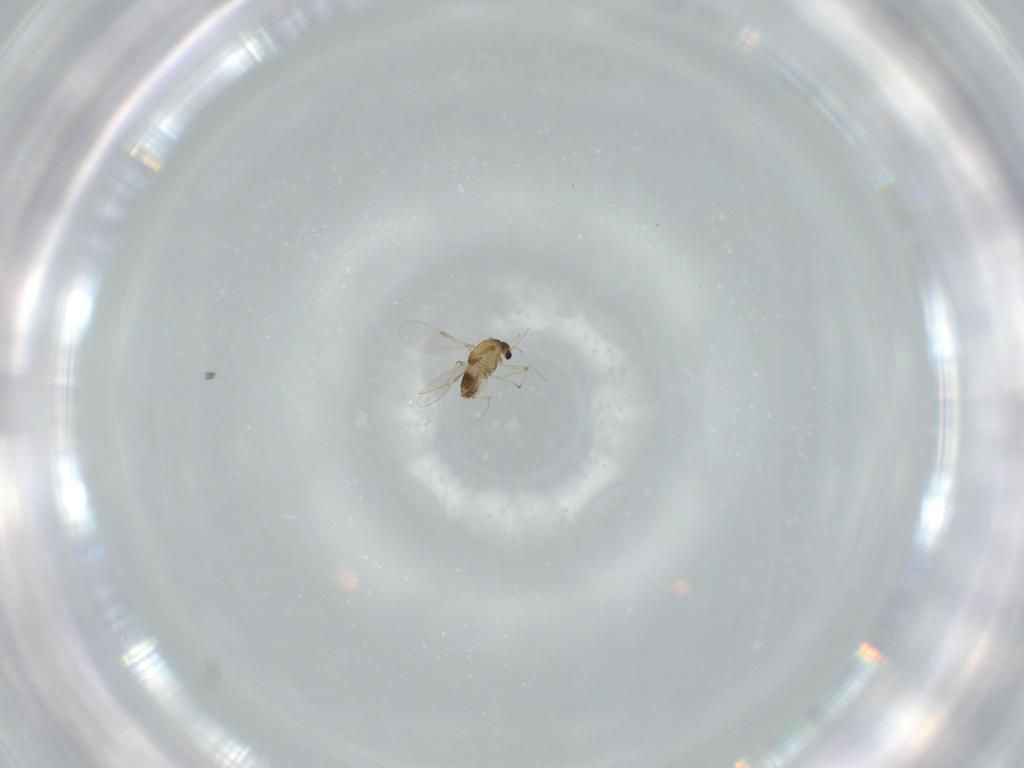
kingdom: Animalia
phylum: Arthropoda
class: Insecta
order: Diptera
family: Chironomidae
